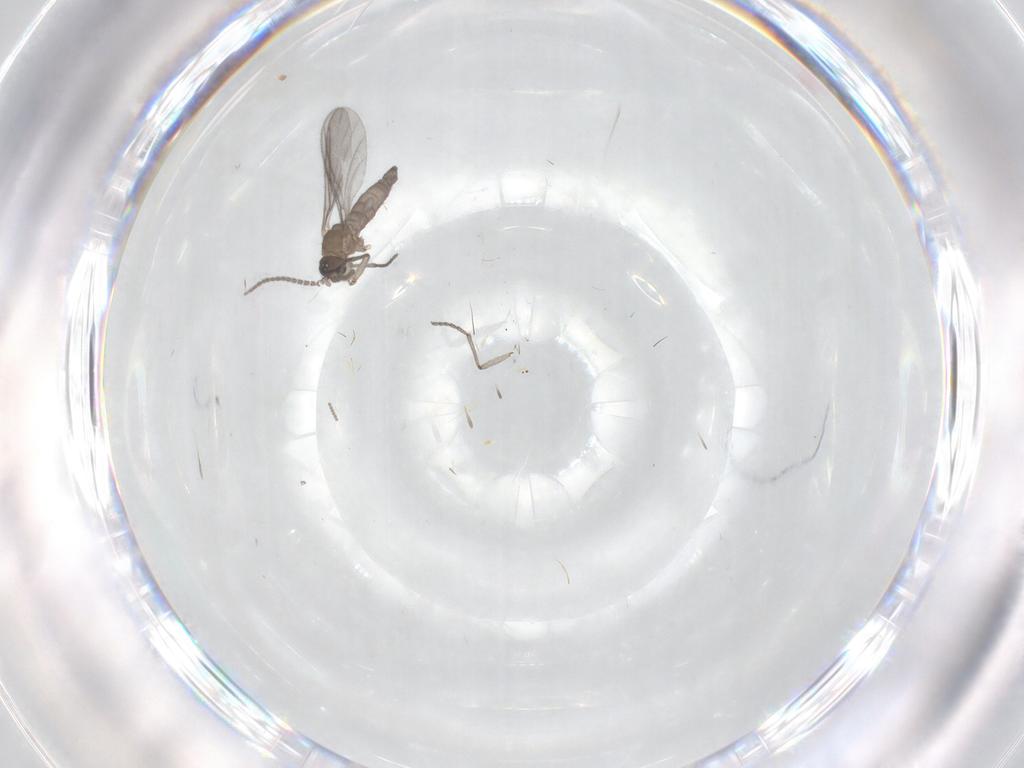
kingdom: Animalia
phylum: Arthropoda
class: Insecta
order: Diptera
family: Sciaridae
